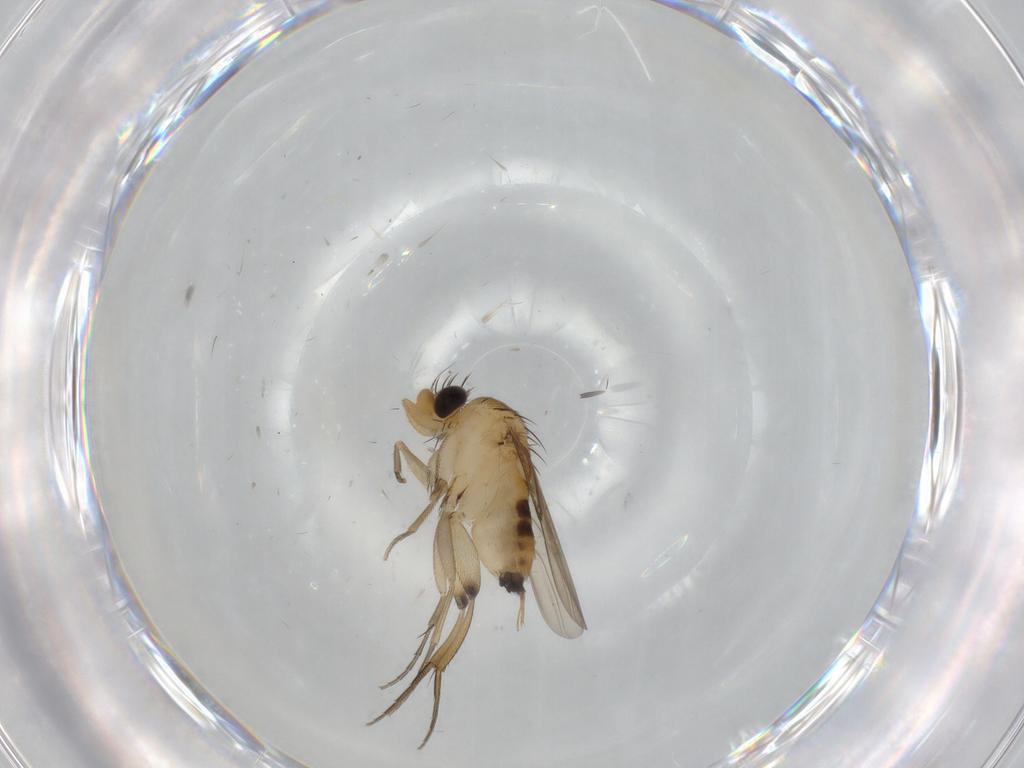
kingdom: Animalia
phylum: Arthropoda
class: Insecta
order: Diptera
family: Phoridae
